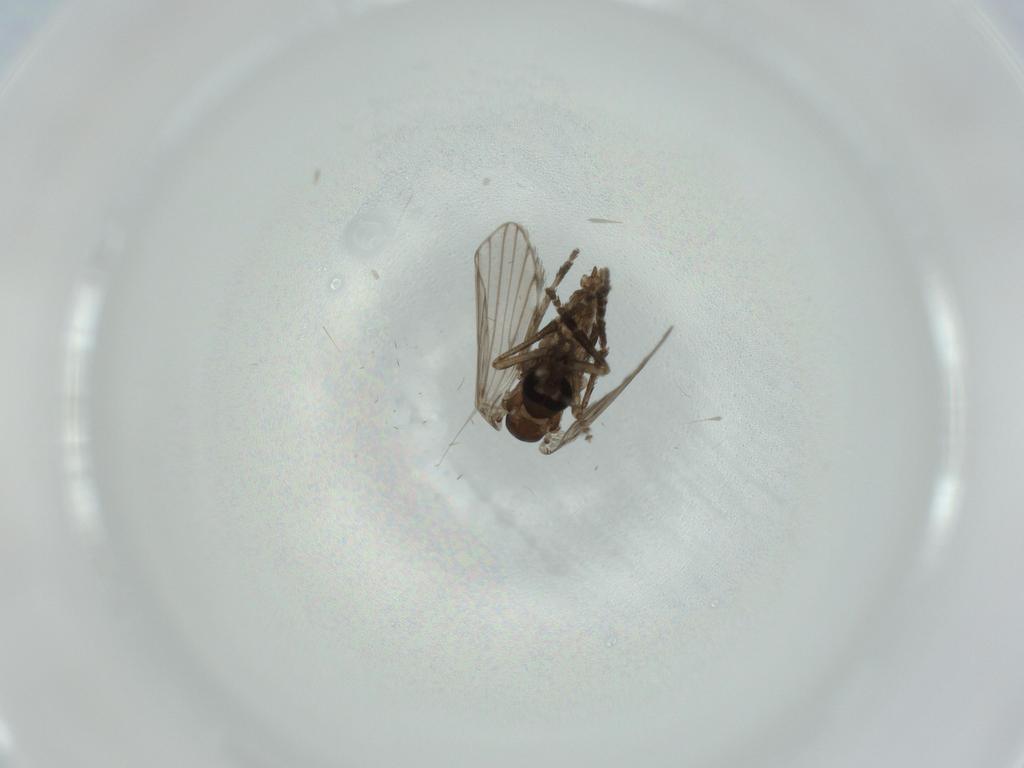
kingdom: Animalia
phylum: Arthropoda
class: Insecta
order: Diptera
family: Psychodidae
